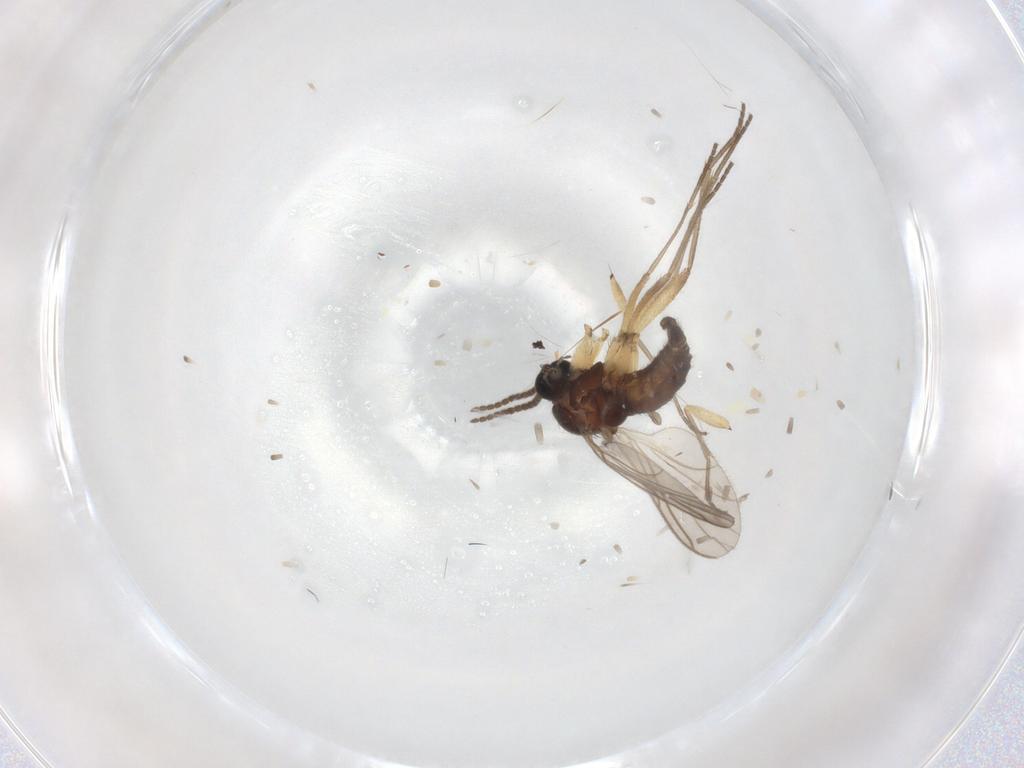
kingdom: Animalia
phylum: Arthropoda
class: Insecta
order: Diptera
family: Sciaridae
